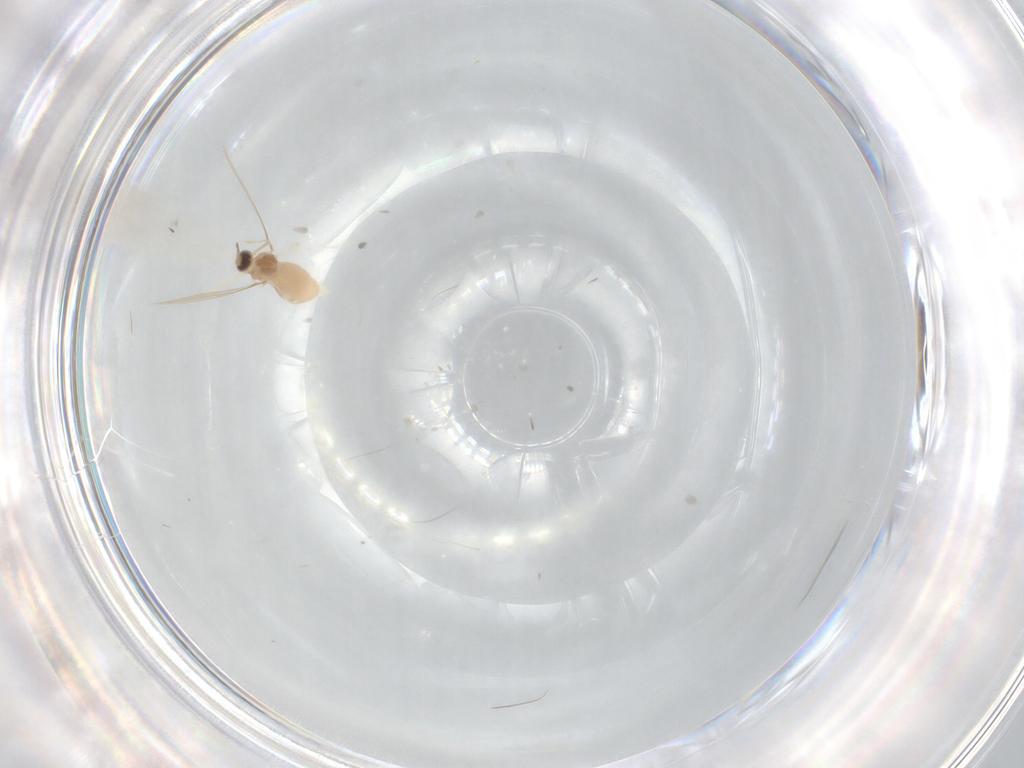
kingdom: Animalia
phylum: Arthropoda
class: Insecta
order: Diptera
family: Cecidomyiidae
